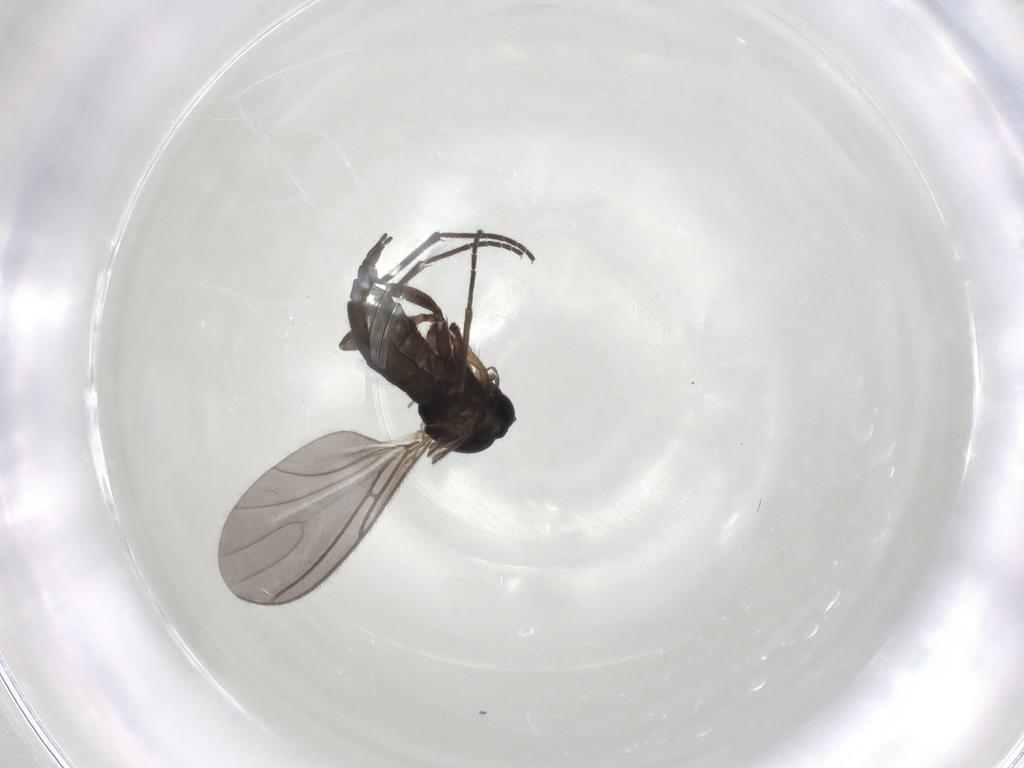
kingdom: Animalia
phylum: Arthropoda
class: Insecta
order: Diptera
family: Sciaridae
